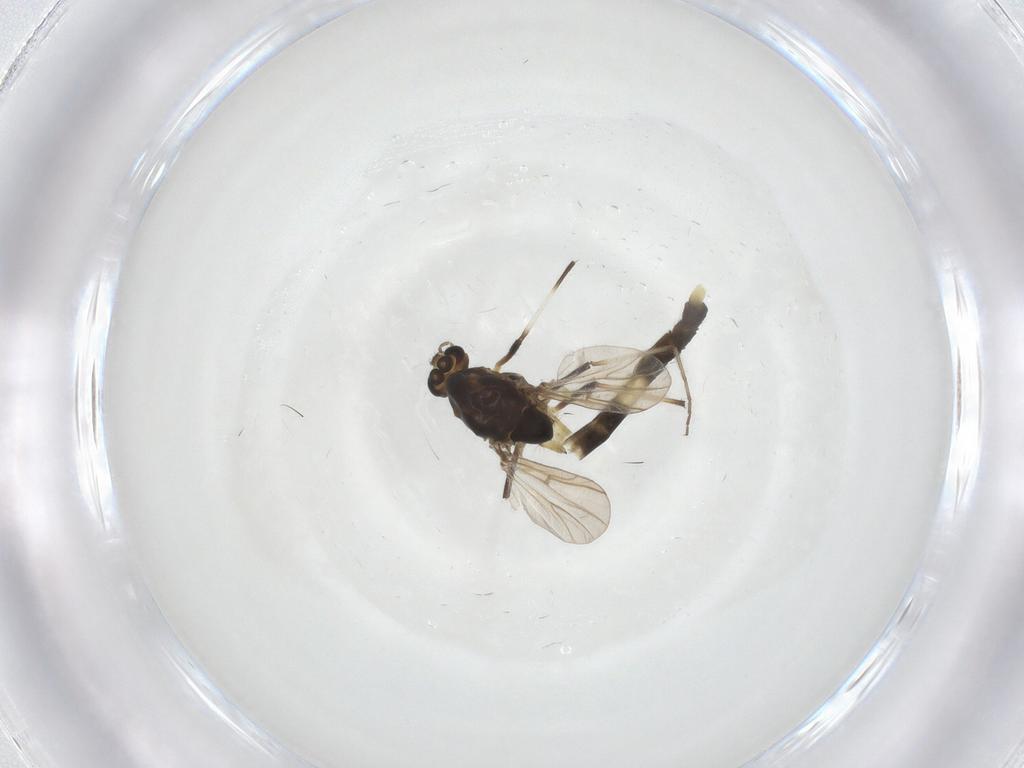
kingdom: Animalia
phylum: Arthropoda
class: Insecta
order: Diptera
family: Chironomidae
